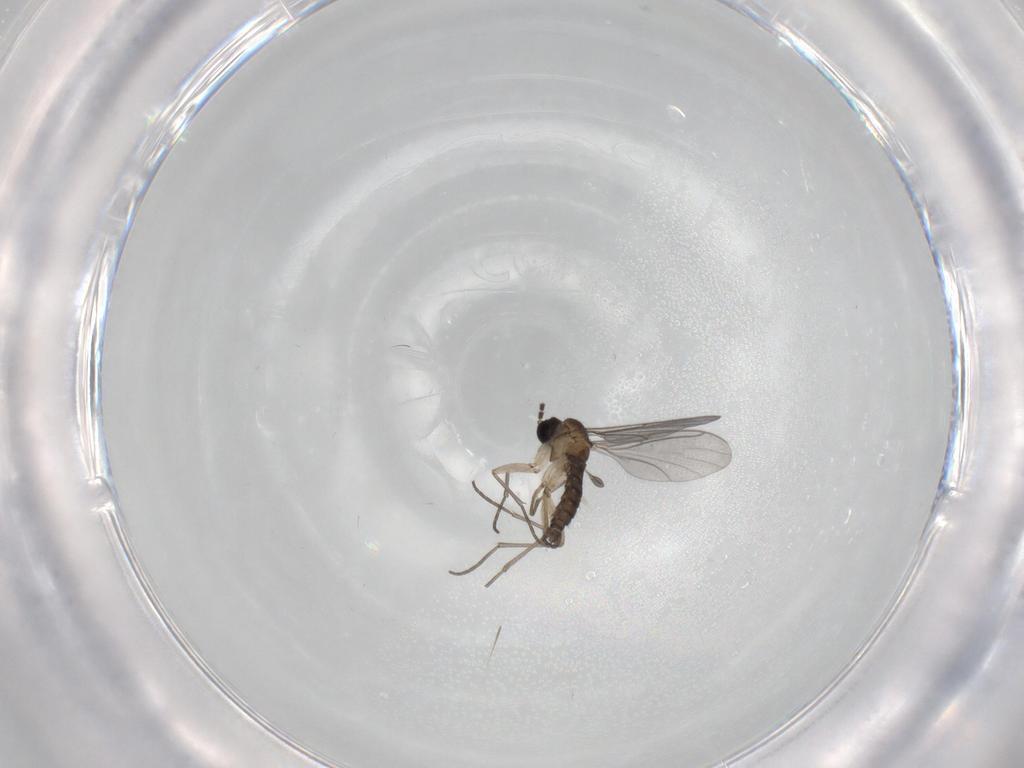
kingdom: Animalia
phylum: Arthropoda
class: Insecta
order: Diptera
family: Sciaridae
